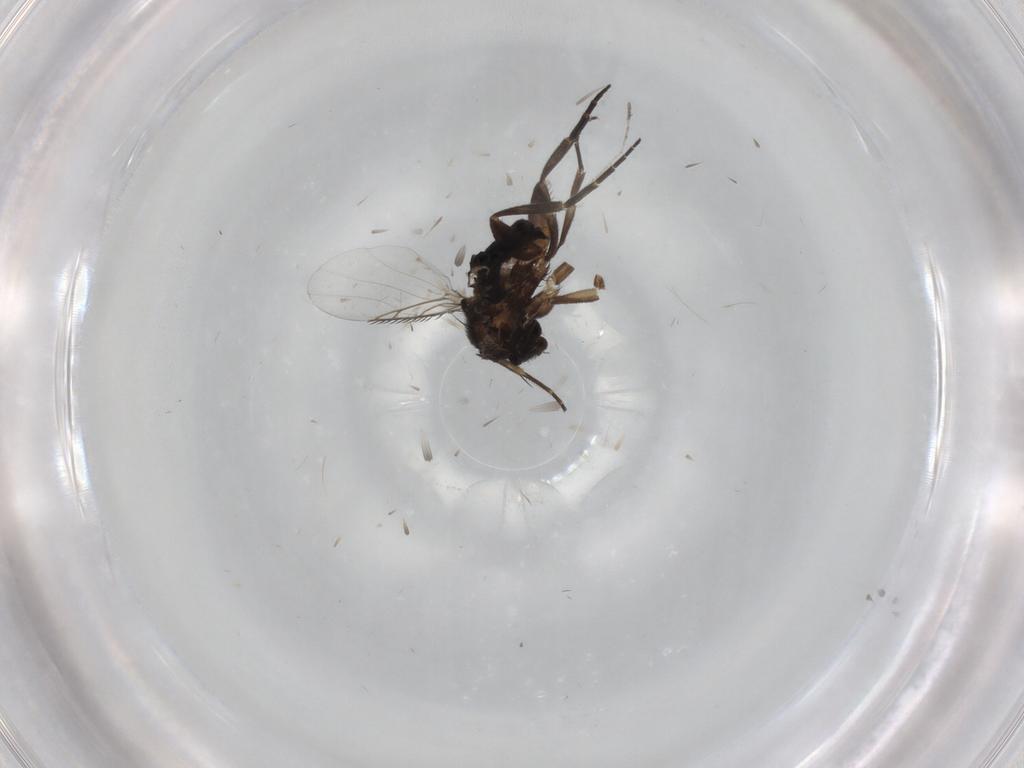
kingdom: Animalia
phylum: Arthropoda
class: Insecta
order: Diptera
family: Phoridae
